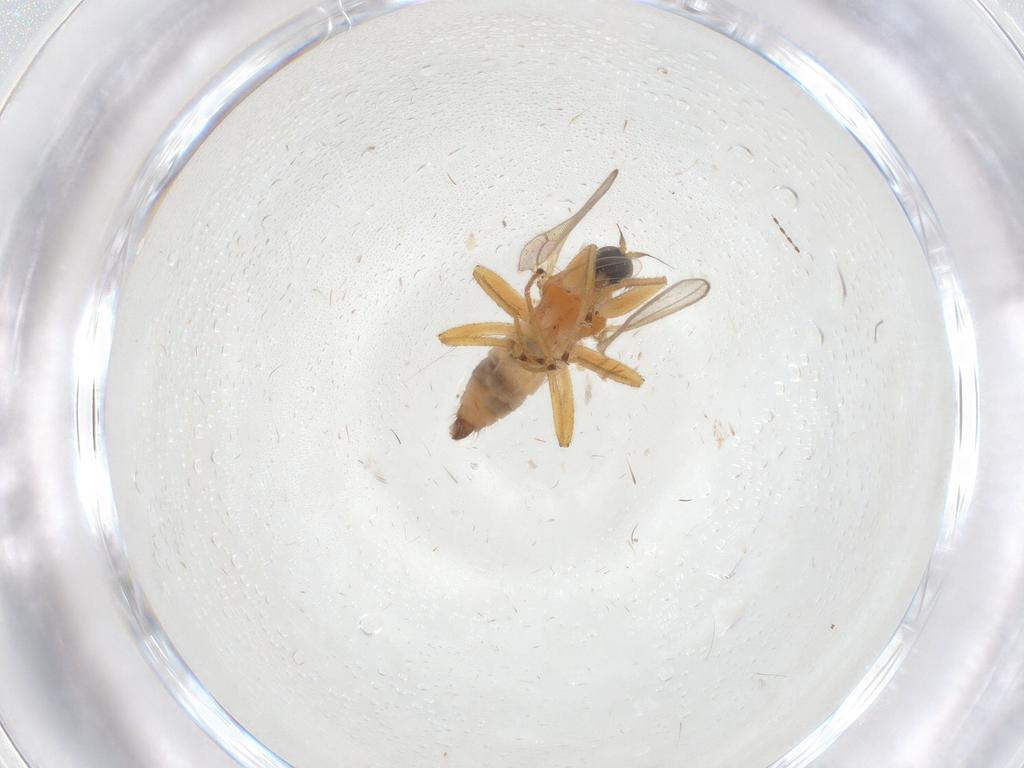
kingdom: Animalia
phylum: Arthropoda
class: Insecta
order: Diptera
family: Hybotidae
